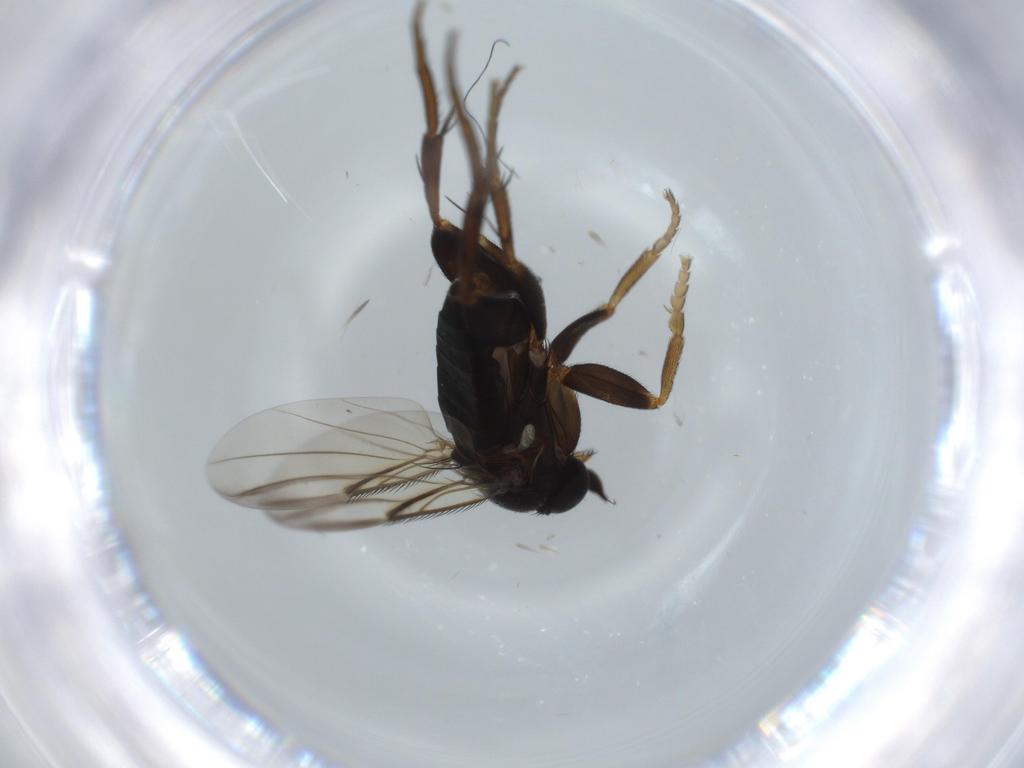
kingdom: Animalia
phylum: Arthropoda
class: Insecta
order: Diptera
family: Phoridae
